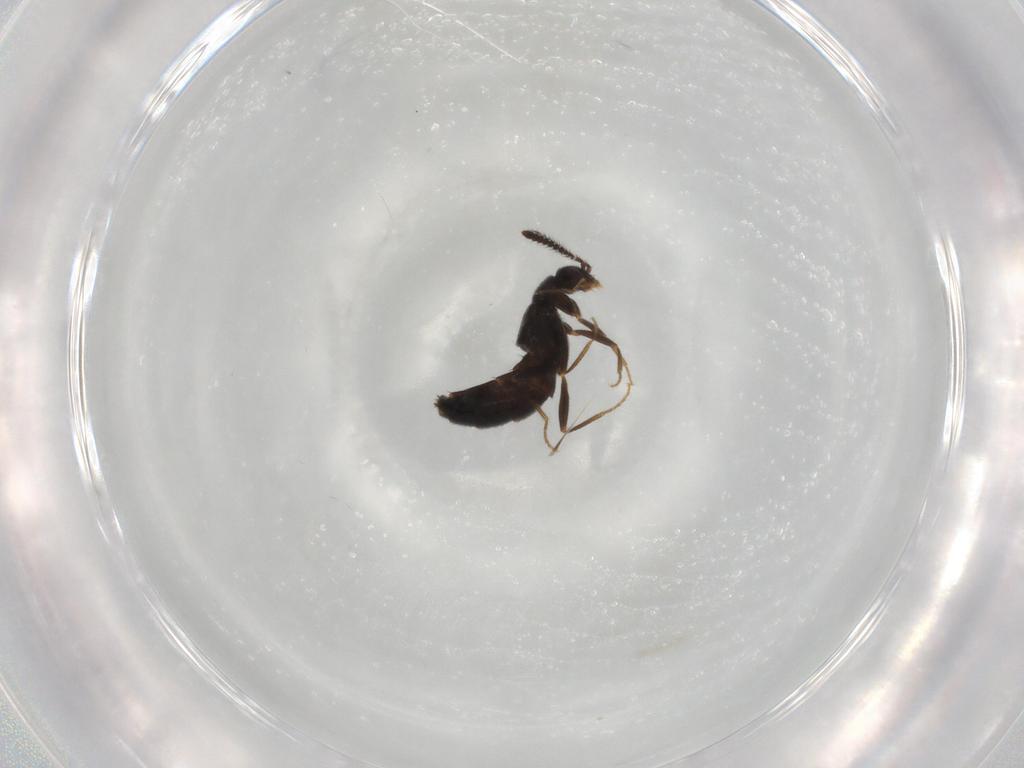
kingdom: Animalia
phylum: Arthropoda
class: Insecta
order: Coleoptera
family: Staphylinidae
